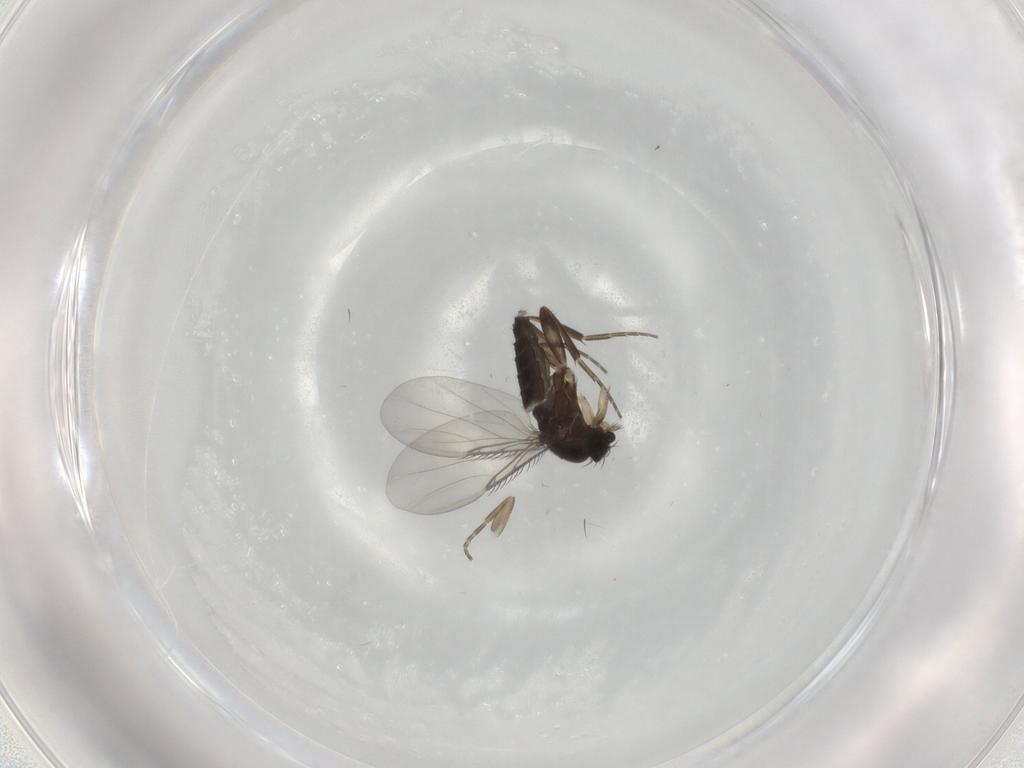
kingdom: Animalia
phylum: Arthropoda
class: Insecta
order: Diptera
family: Phoridae
